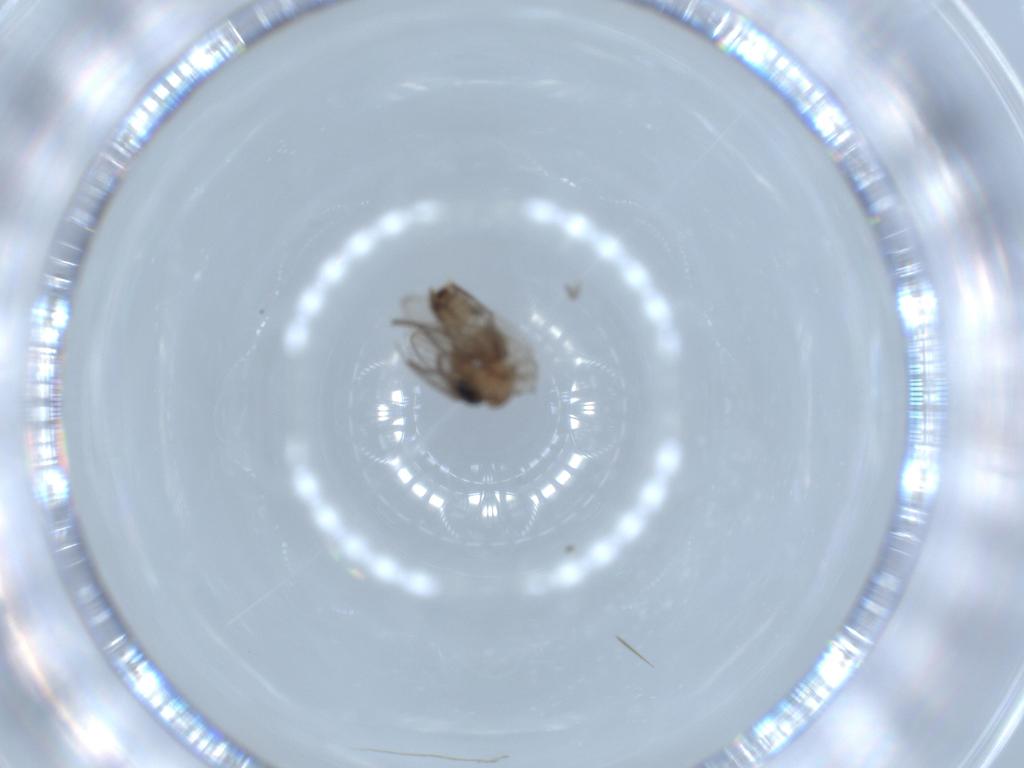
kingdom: Animalia
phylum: Arthropoda
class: Insecta
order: Diptera
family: Psychodidae
